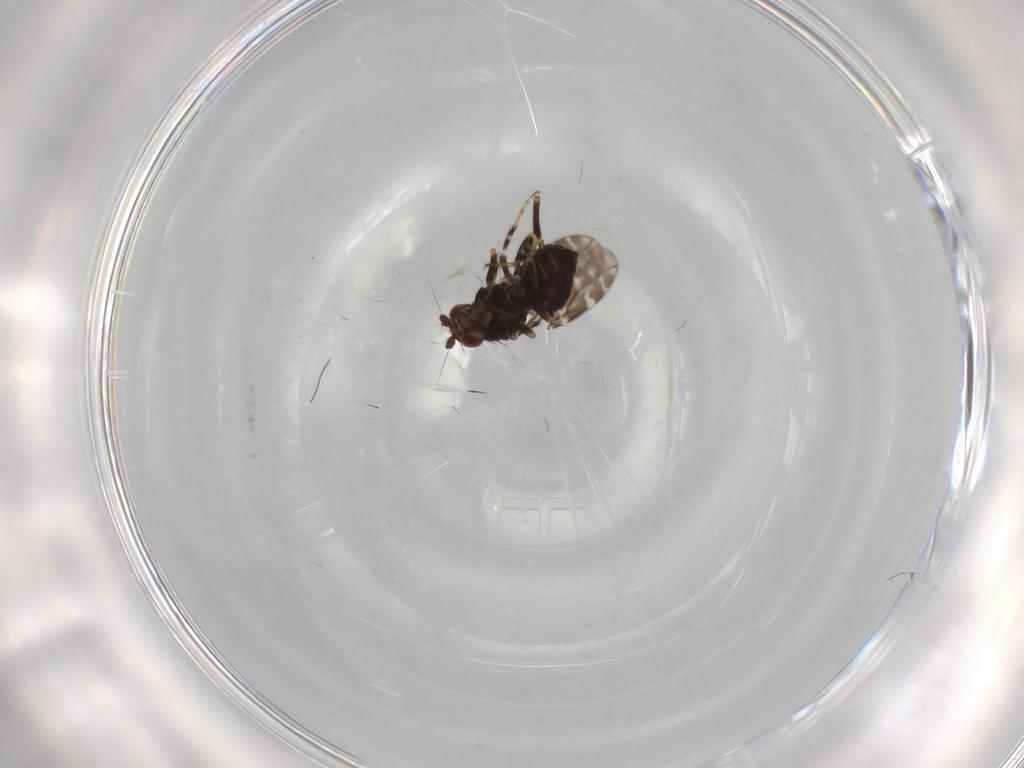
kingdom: Animalia
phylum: Arthropoda
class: Insecta
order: Diptera
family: Sphaeroceridae
